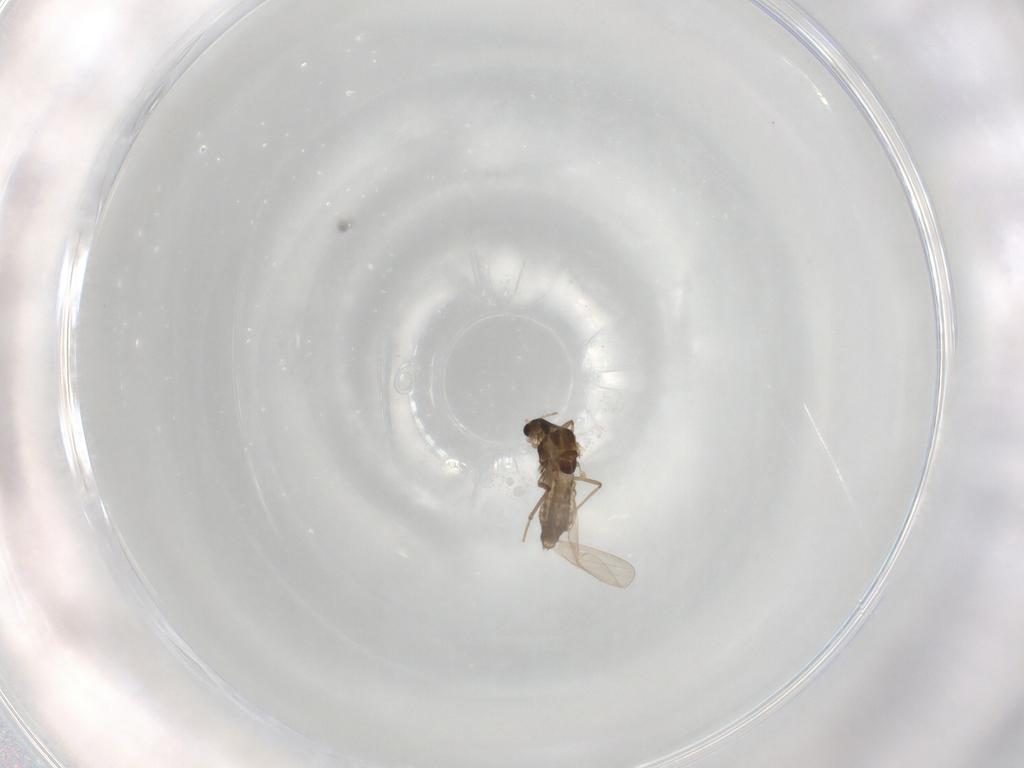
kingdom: Animalia
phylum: Arthropoda
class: Insecta
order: Diptera
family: Chironomidae
